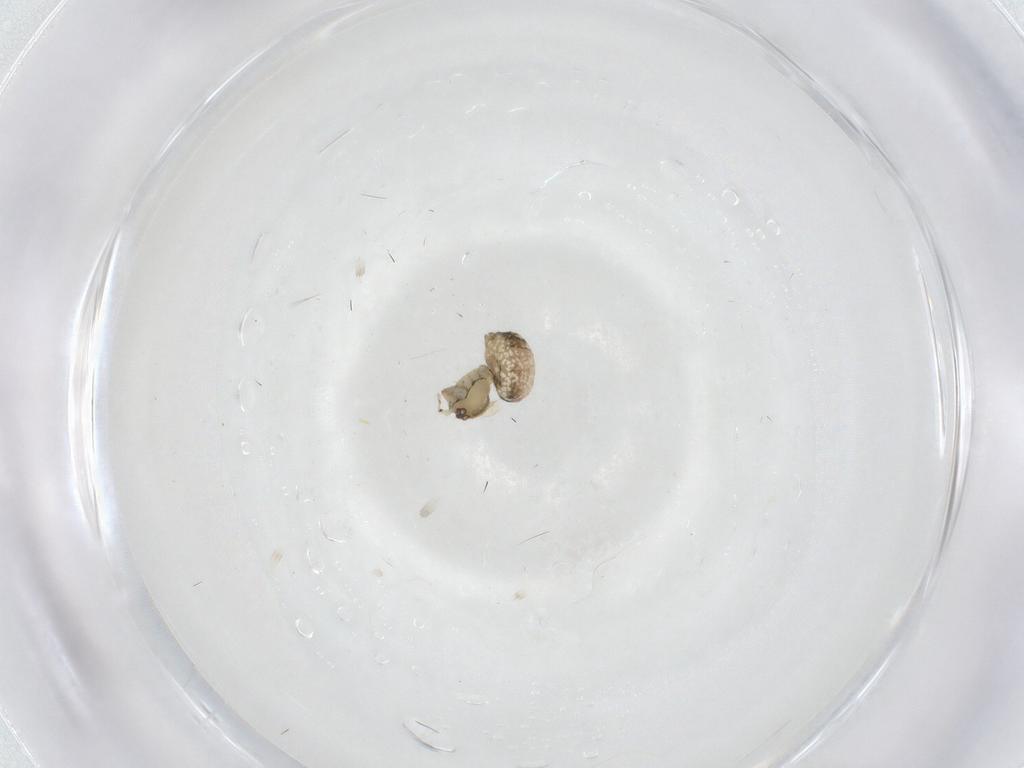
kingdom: Animalia
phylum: Arthropoda
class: Arachnida
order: Araneae
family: Theridiidae
